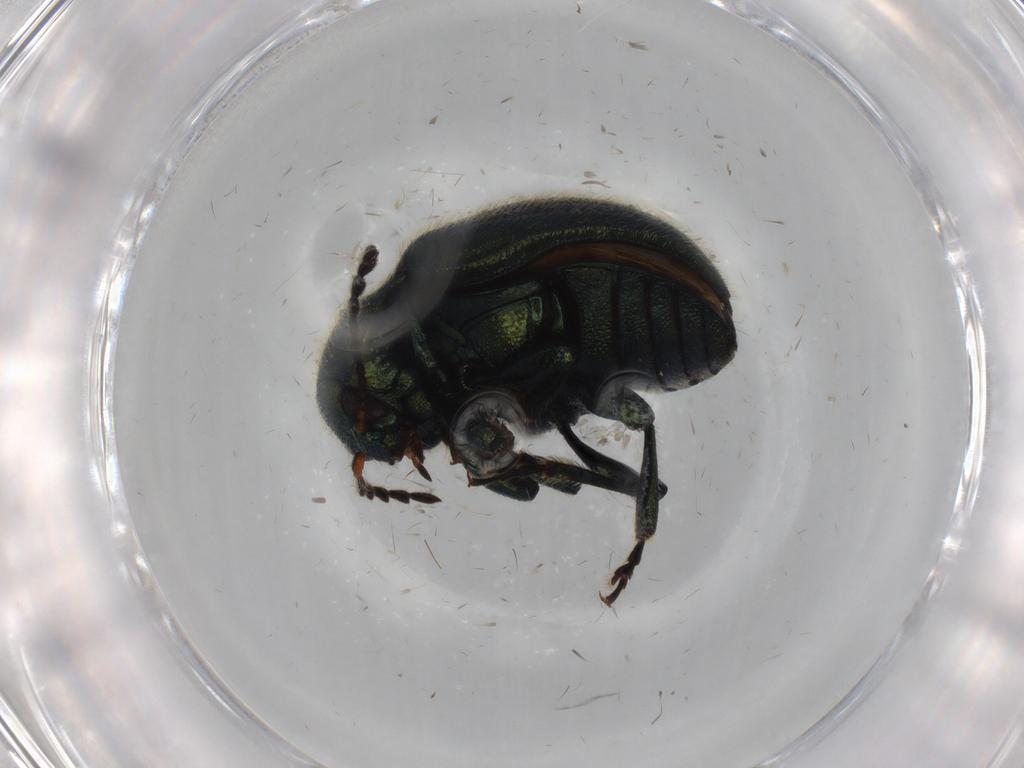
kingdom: Animalia
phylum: Arthropoda
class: Insecta
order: Coleoptera
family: Chrysomelidae
